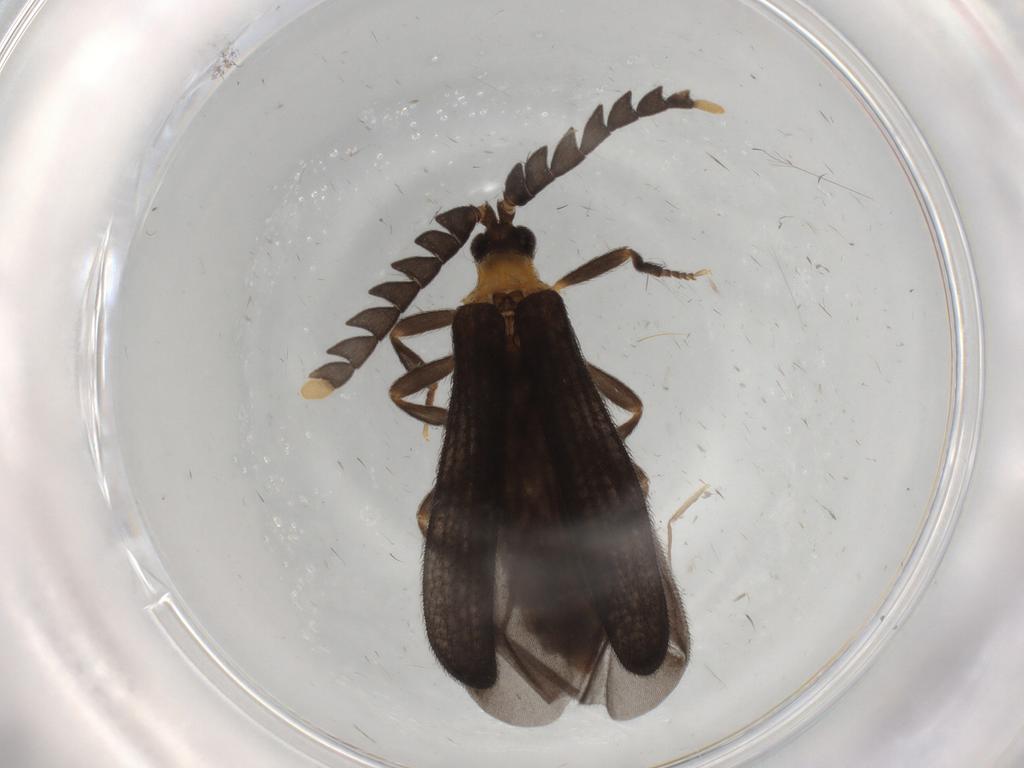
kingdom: Animalia
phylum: Arthropoda
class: Insecta
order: Coleoptera
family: Lycidae
